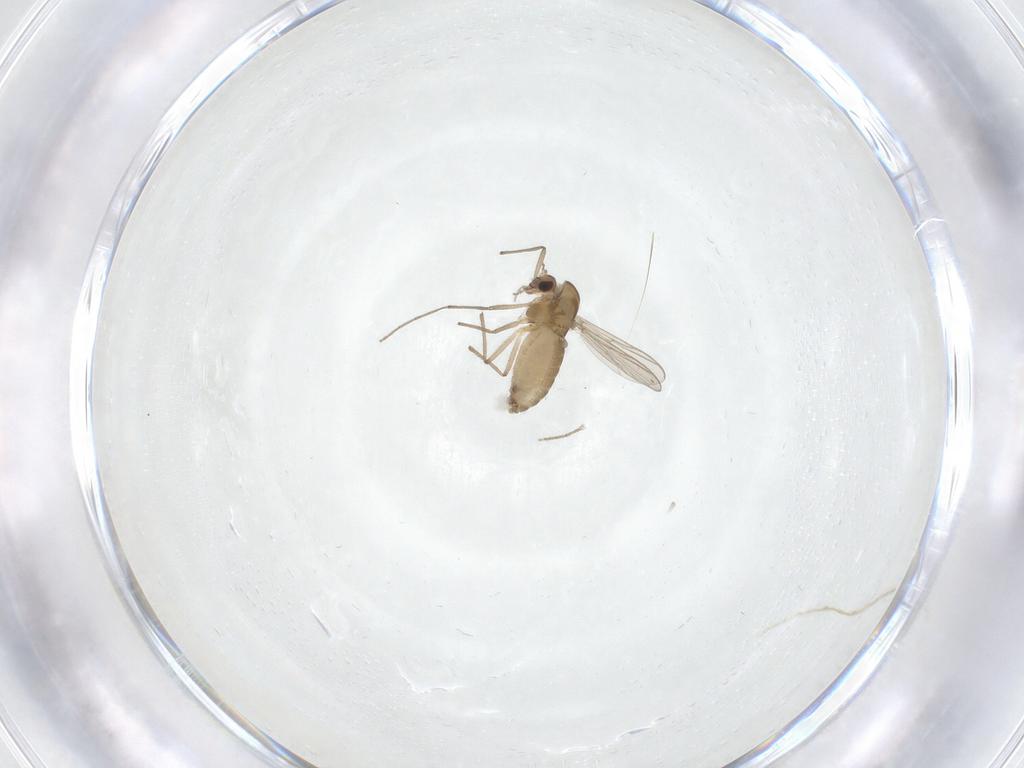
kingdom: Animalia
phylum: Arthropoda
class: Insecta
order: Diptera
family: Chironomidae
